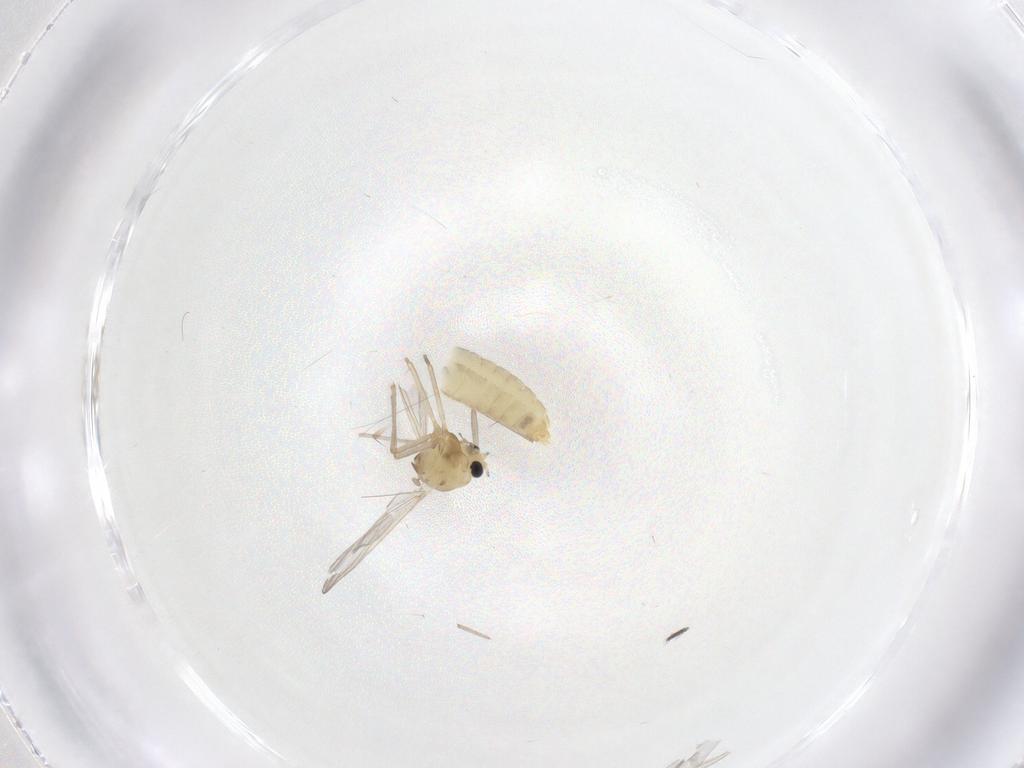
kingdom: Animalia
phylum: Arthropoda
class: Insecta
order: Diptera
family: Chironomidae
